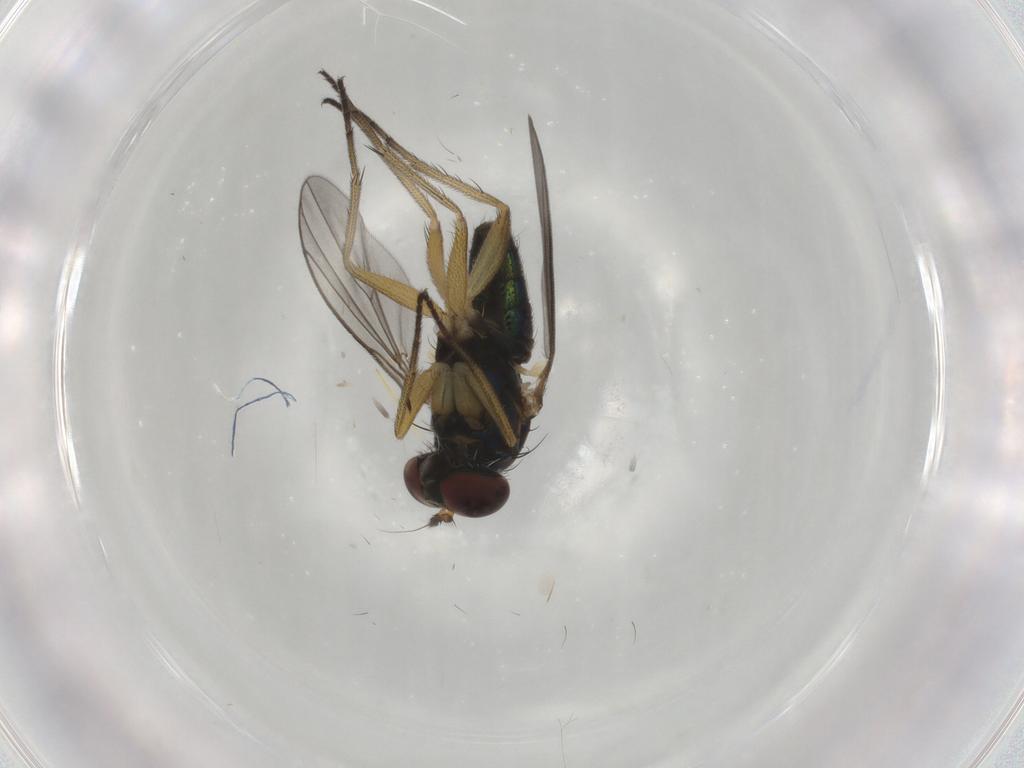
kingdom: Animalia
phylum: Arthropoda
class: Insecta
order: Diptera
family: Dolichopodidae
